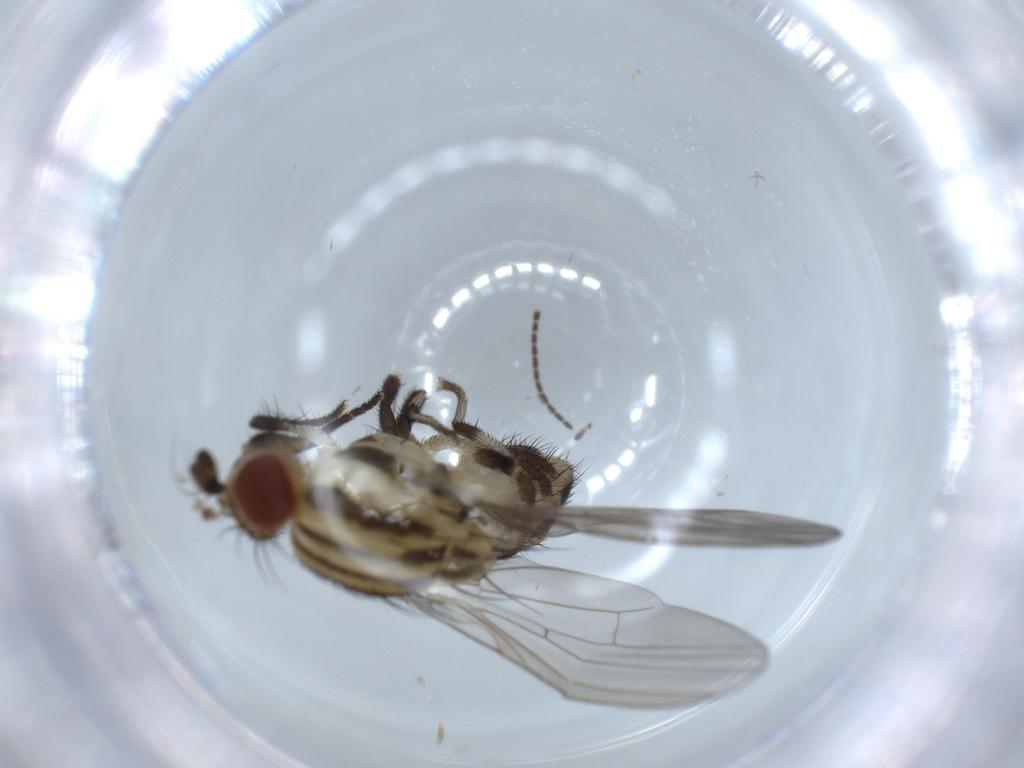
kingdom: Animalia
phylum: Arthropoda
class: Insecta
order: Diptera
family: Lauxaniidae
